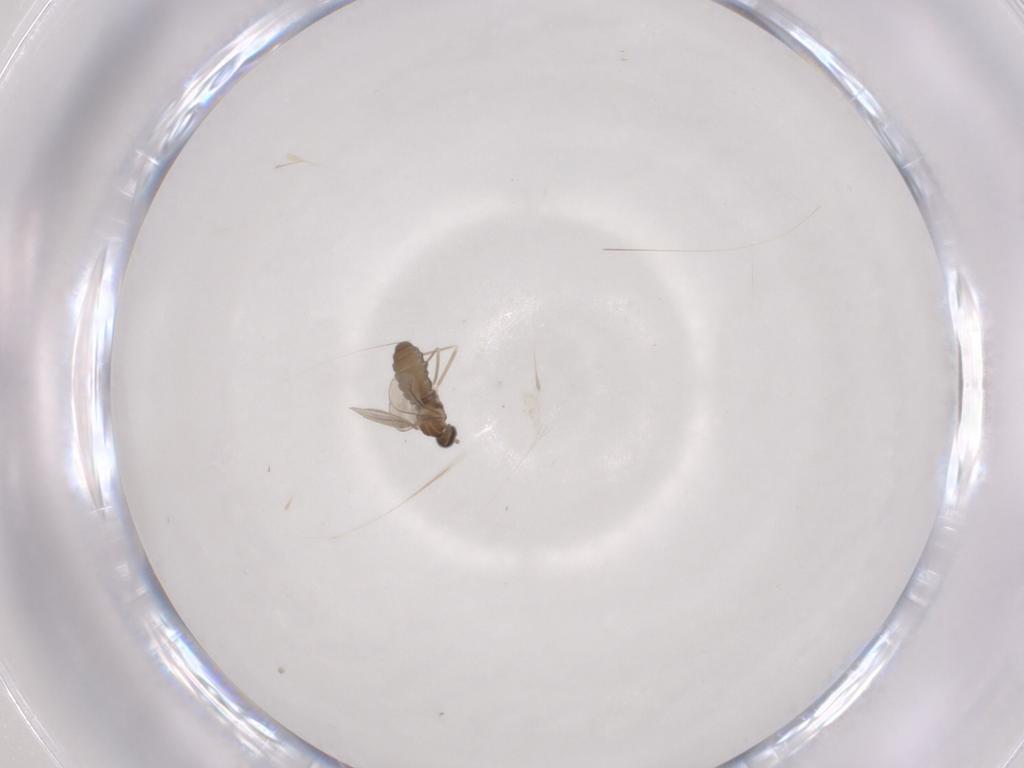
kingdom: Animalia
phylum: Arthropoda
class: Insecta
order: Diptera
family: Cecidomyiidae
